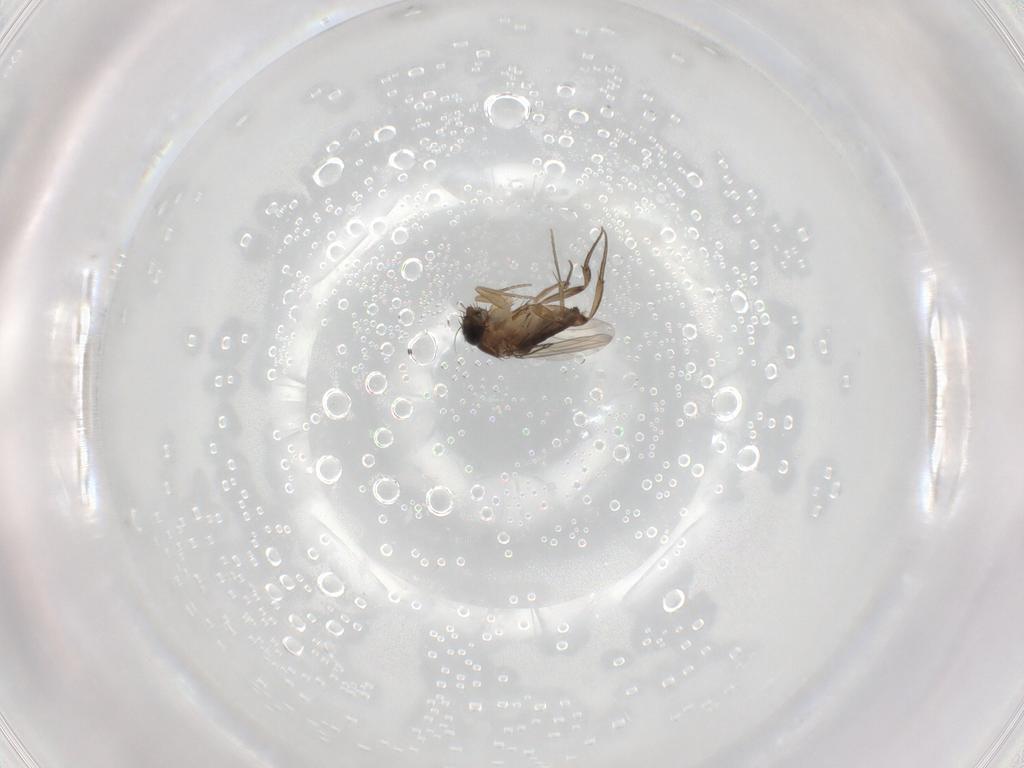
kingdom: Animalia
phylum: Arthropoda
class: Insecta
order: Diptera
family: Phoridae
